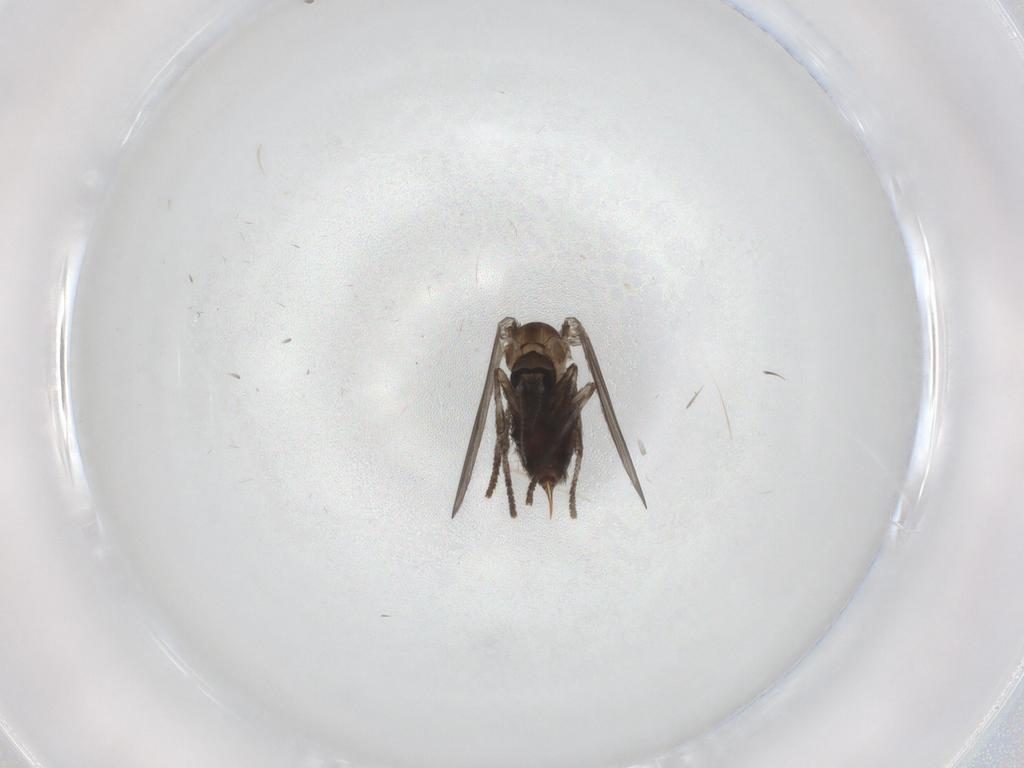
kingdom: Animalia
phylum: Arthropoda
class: Insecta
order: Diptera
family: Psychodidae
